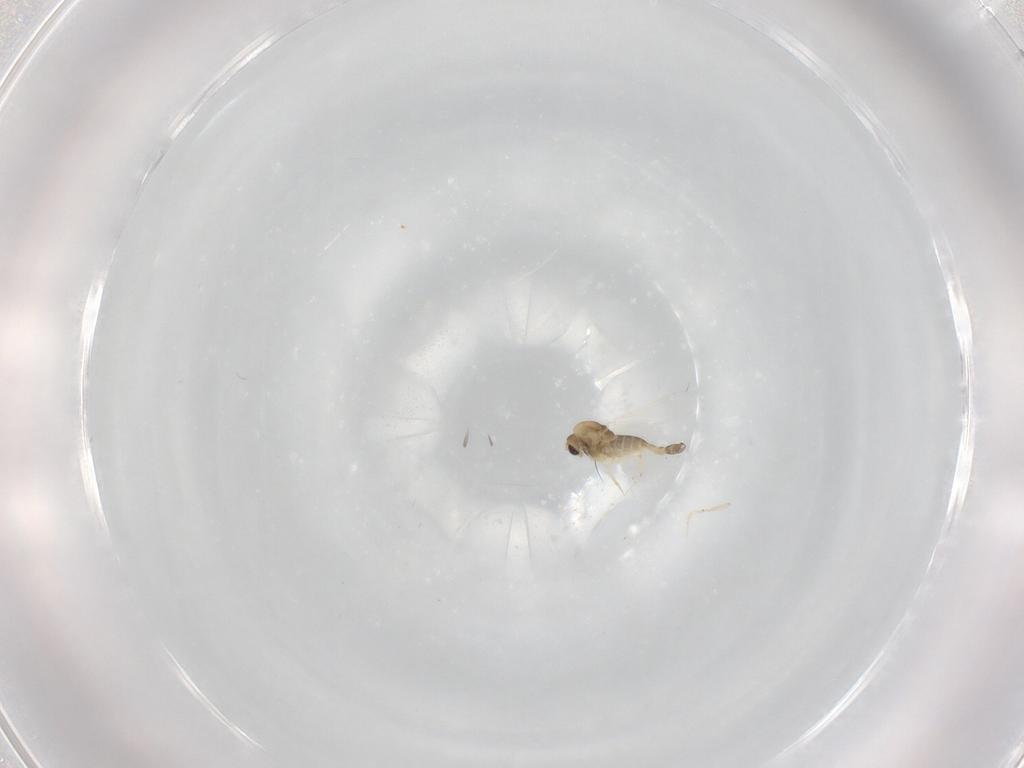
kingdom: Animalia
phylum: Arthropoda
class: Insecta
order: Diptera
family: Chironomidae
